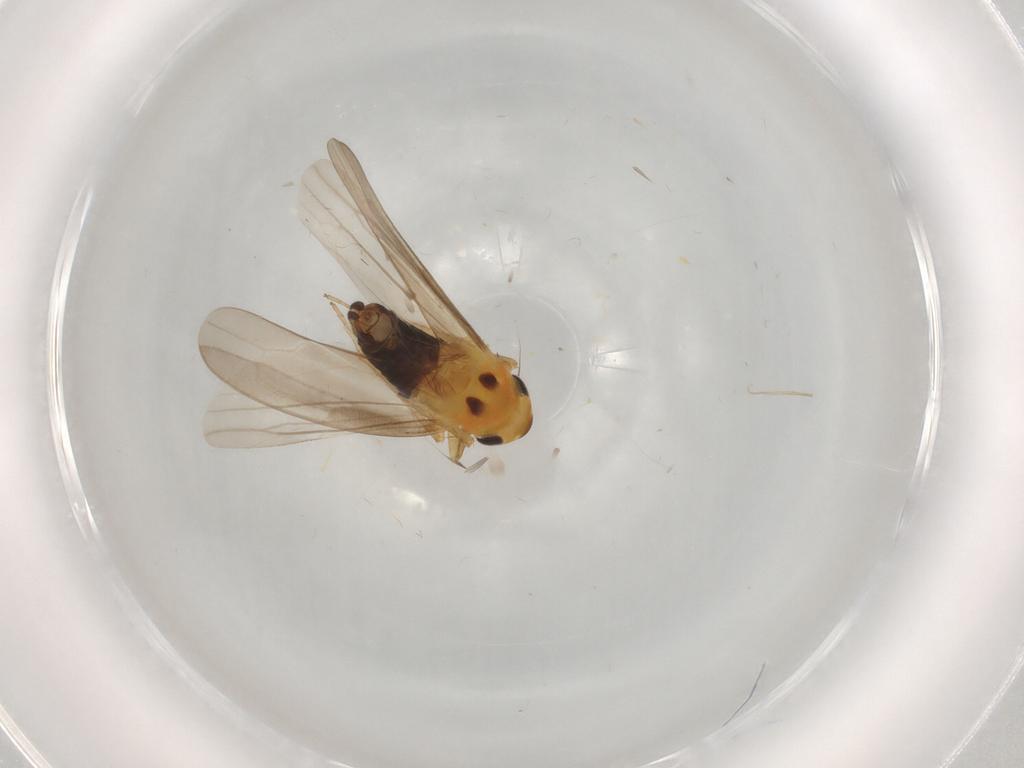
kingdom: Animalia
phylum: Arthropoda
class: Insecta
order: Hemiptera
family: Cicadellidae
